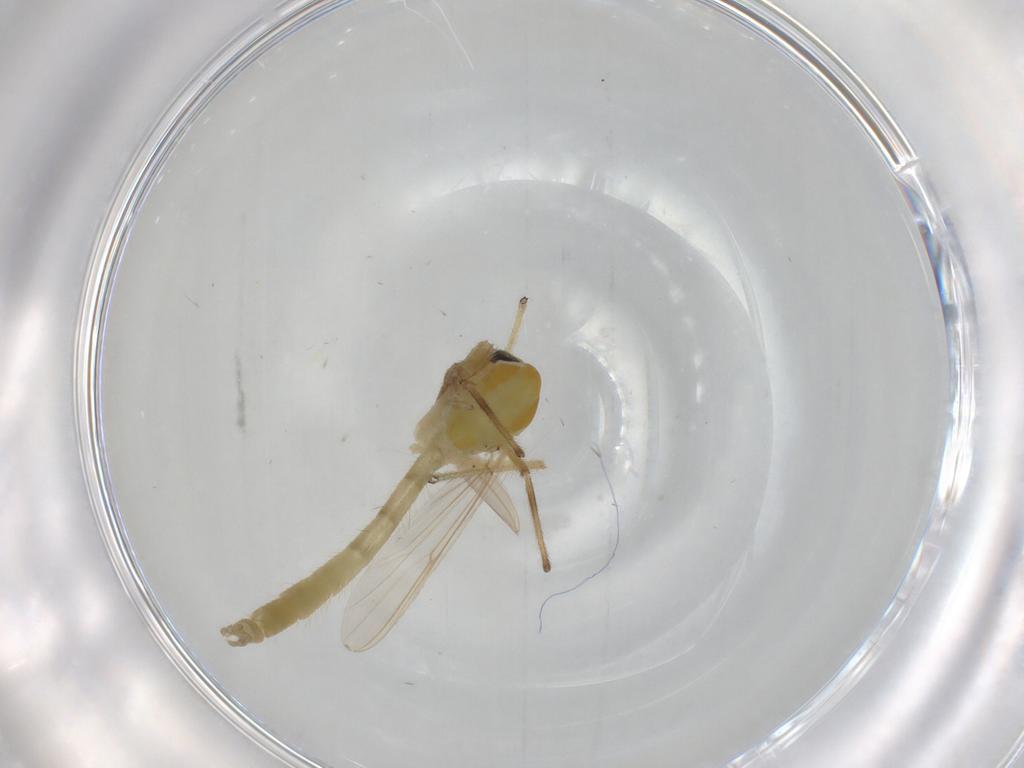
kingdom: Animalia
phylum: Arthropoda
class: Insecta
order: Diptera
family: Chironomidae
